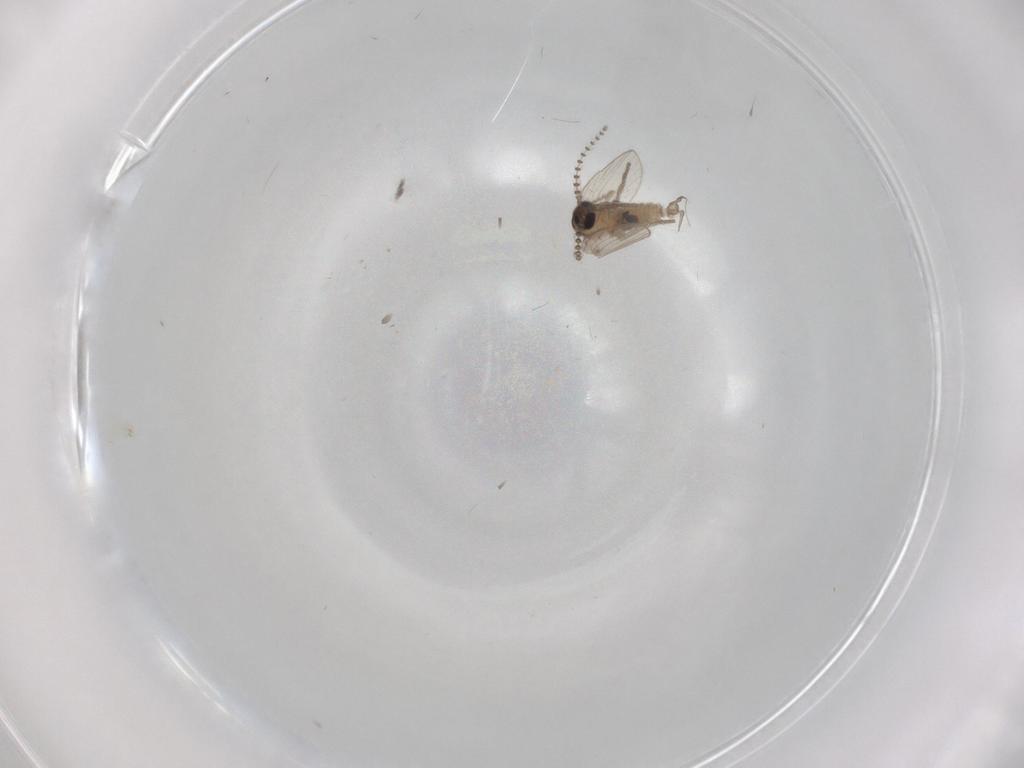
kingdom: Animalia
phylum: Arthropoda
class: Insecta
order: Diptera
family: Psychodidae
